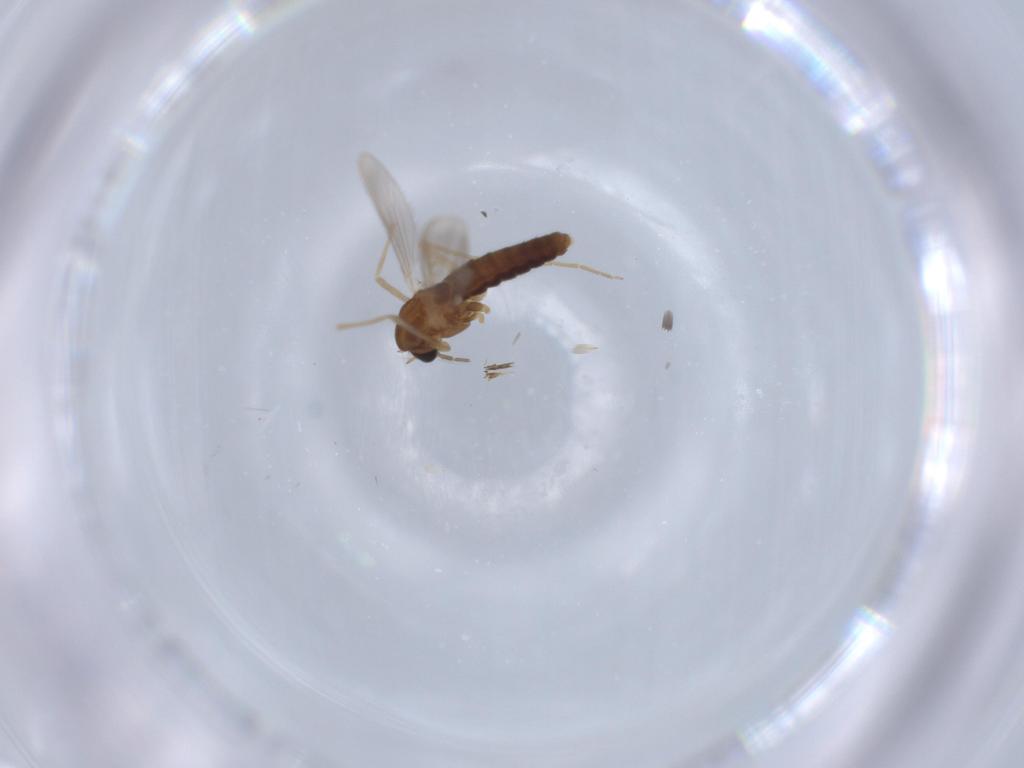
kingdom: Animalia
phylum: Arthropoda
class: Insecta
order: Diptera
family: Chironomidae
